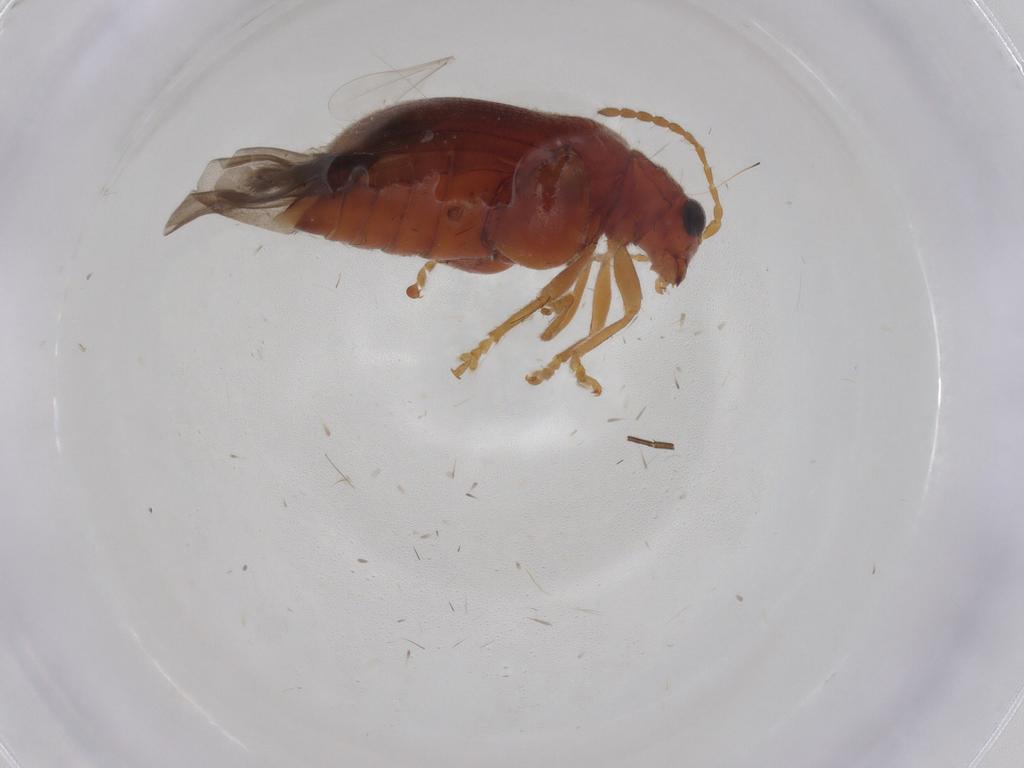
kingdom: Animalia
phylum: Arthropoda
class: Insecta
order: Coleoptera
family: Chrysomelidae
